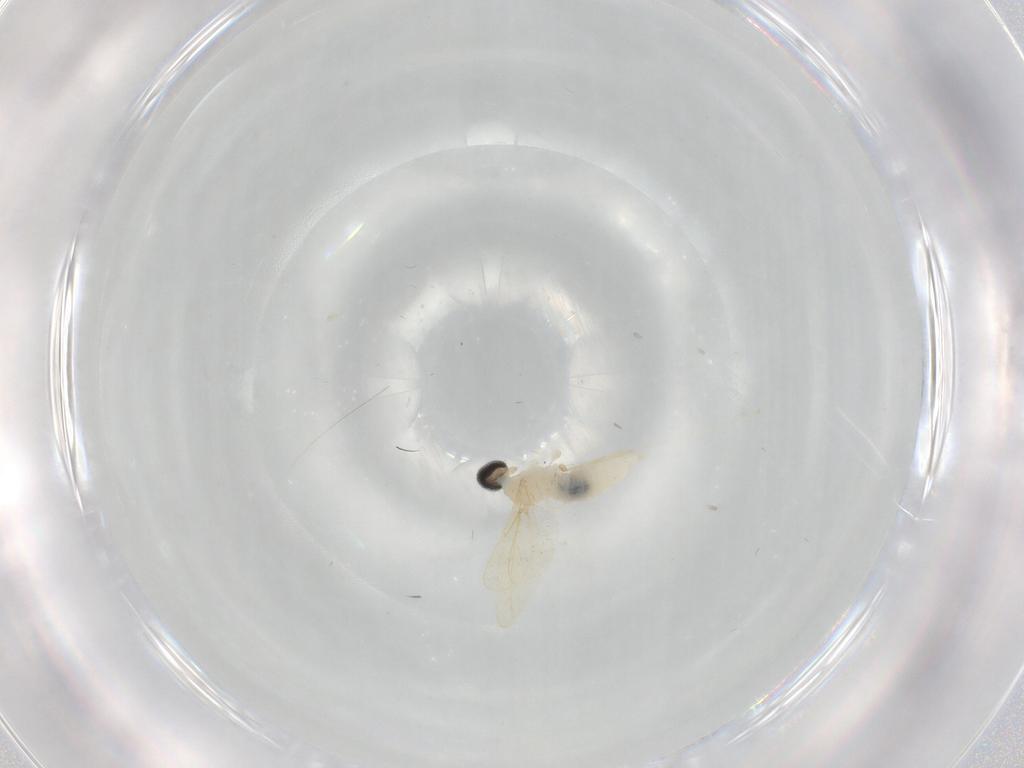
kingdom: Animalia
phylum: Arthropoda
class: Insecta
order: Diptera
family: Cecidomyiidae
